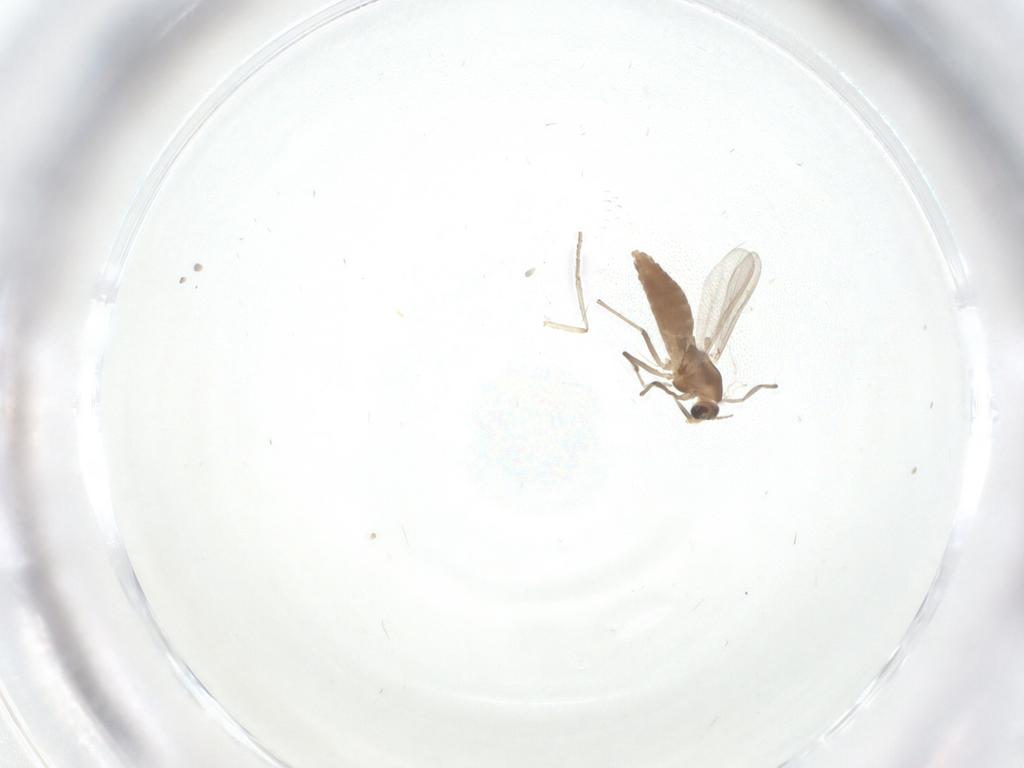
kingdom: Animalia
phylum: Arthropoda
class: Insecta
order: Diptera
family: Chironomidae
